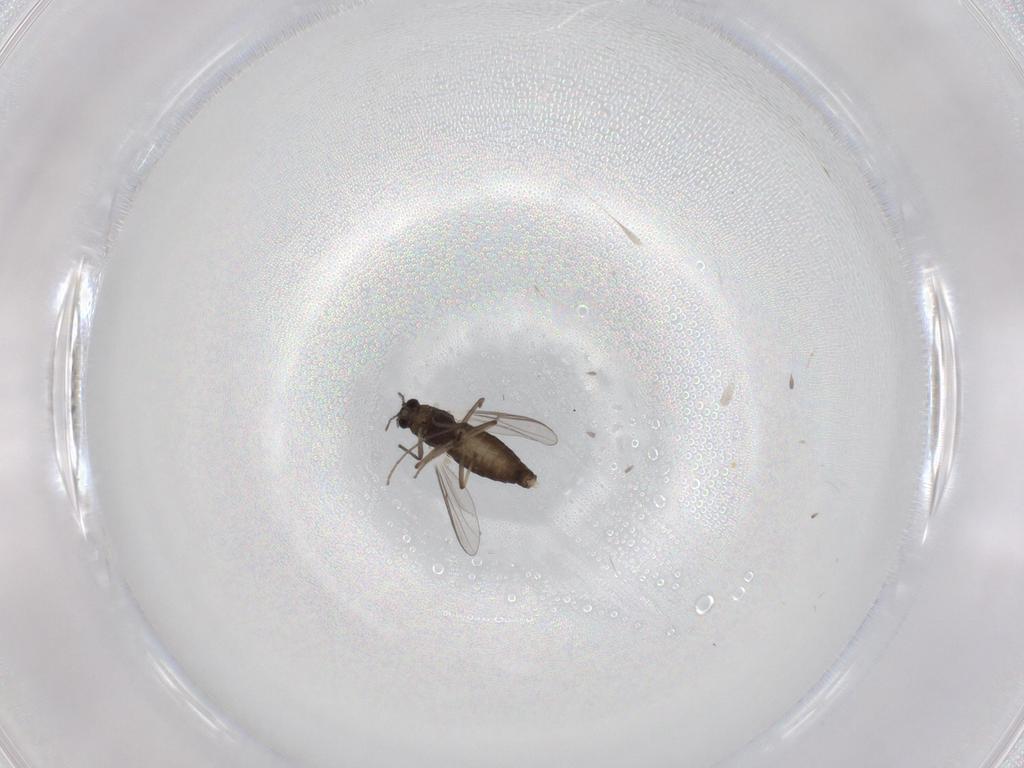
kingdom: Animalia
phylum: Arthropoda
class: Insecta
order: Diptera
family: Chironomidae
